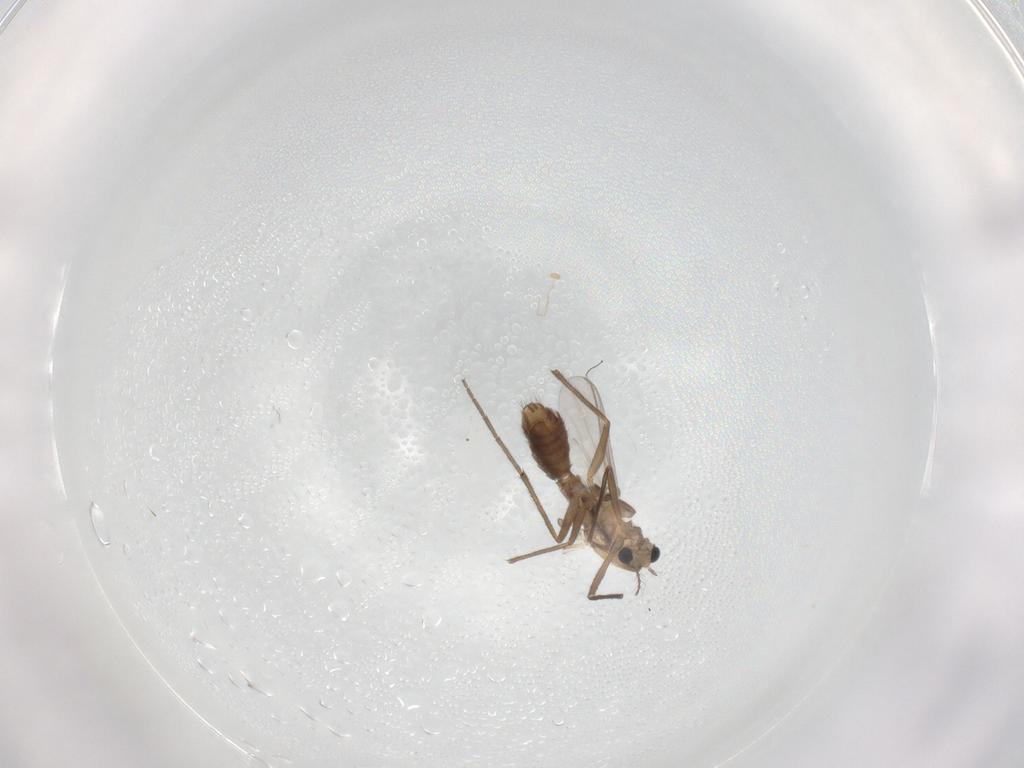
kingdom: Animalia
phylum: Arthropoda
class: Insecta
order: Diptera
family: Chironomidae
